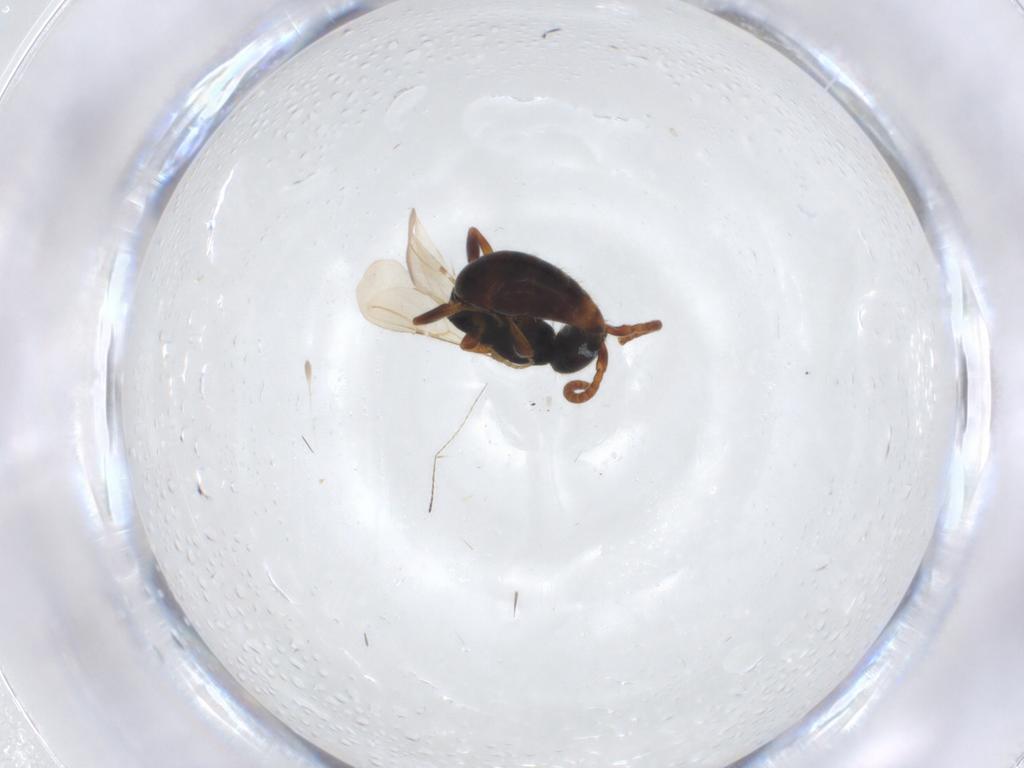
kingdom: Animalia
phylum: Arthropoda
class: Insecta
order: Hymenoptera
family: Bethylidae
